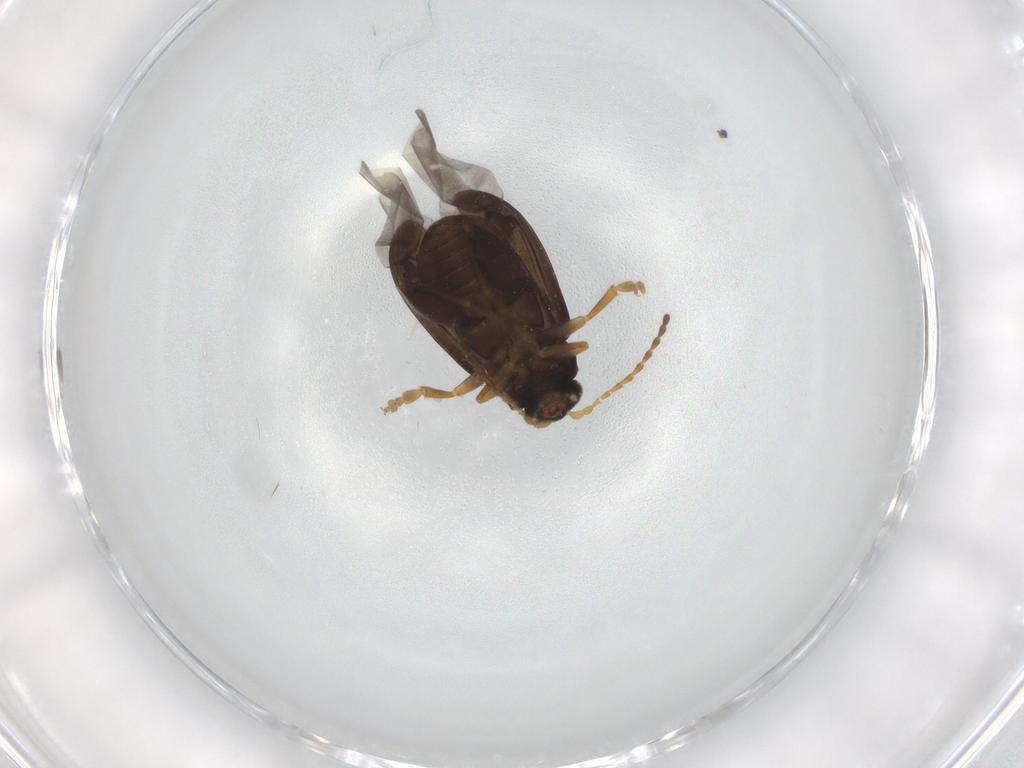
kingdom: Animalia
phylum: Arthropoda
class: Insecta
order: Coleoptera
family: Chrysomelidae
